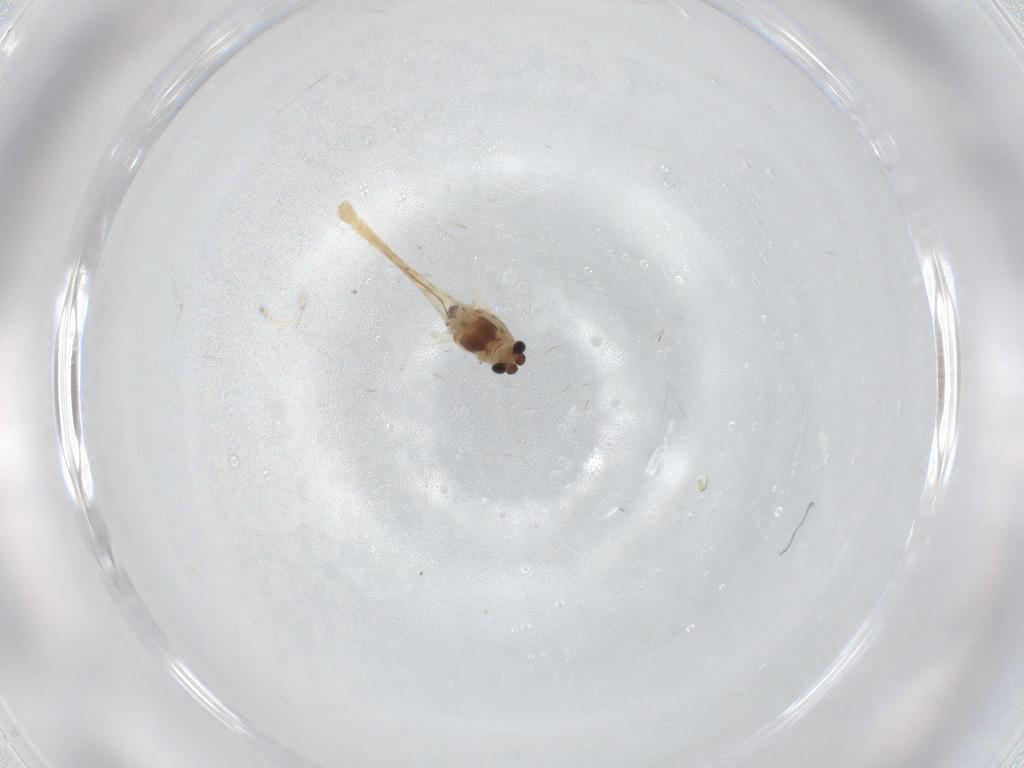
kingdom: Animalia
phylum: Arthropoda
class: Insecta
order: Diptera
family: Chironomidae
